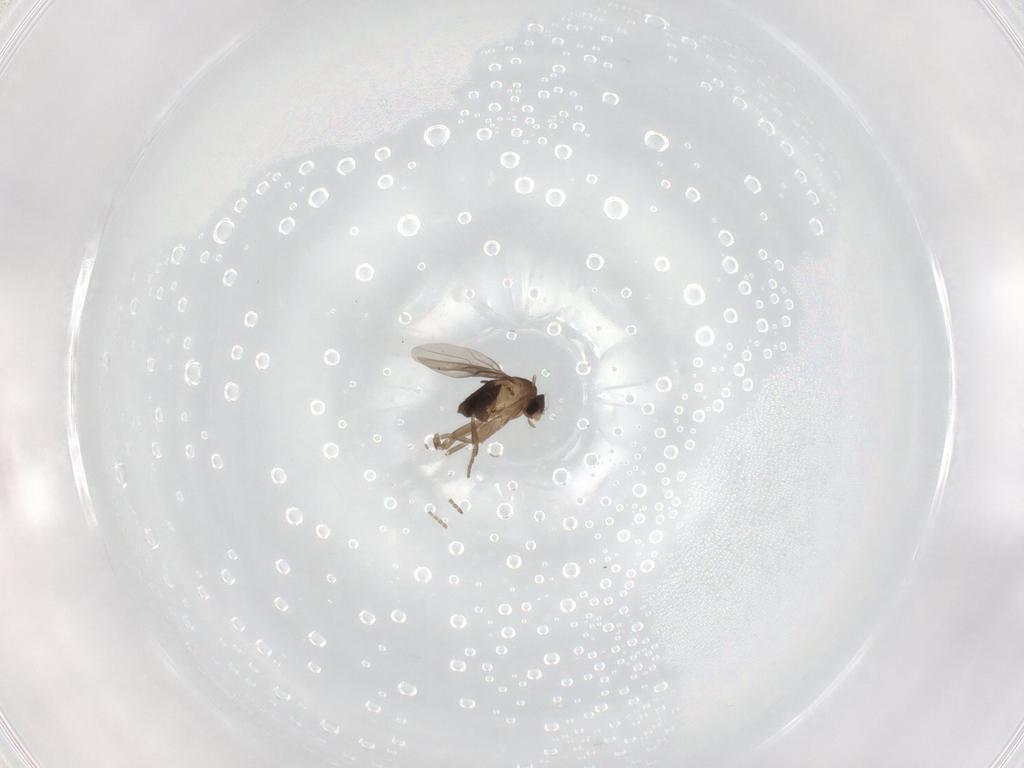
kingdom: Animalia
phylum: Arthropoda
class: Insecta
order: Diptera
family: Phoridae
